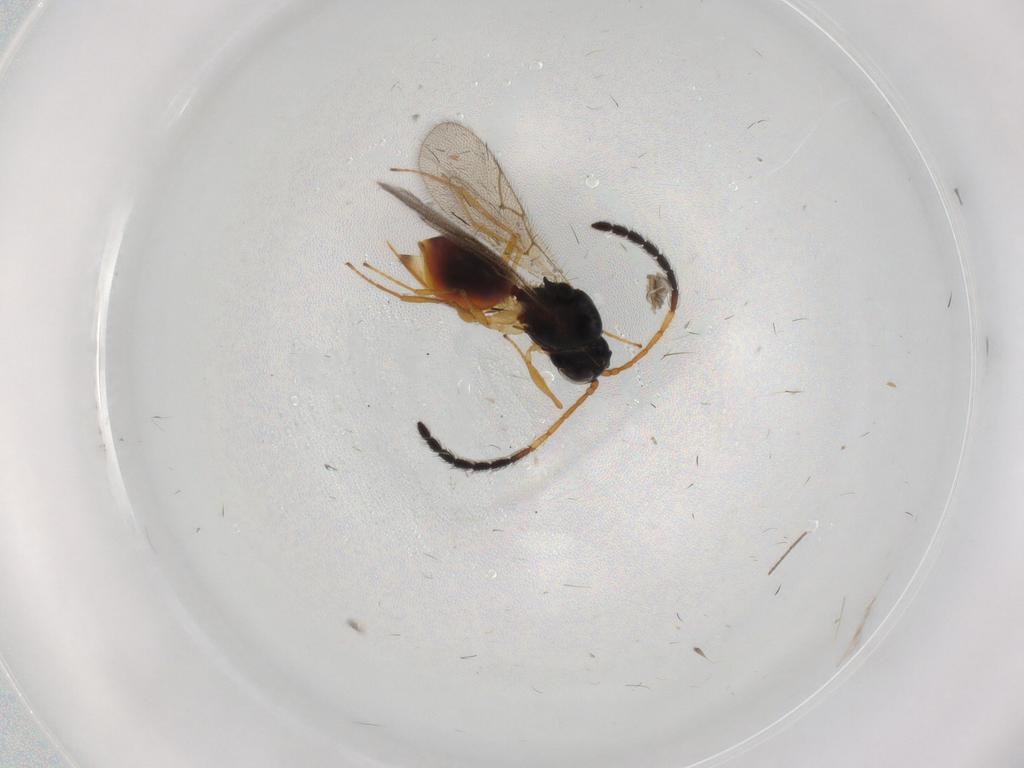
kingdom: Animalia
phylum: Arthropoda
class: Insecta
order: Hymenoptera
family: Figitidae
